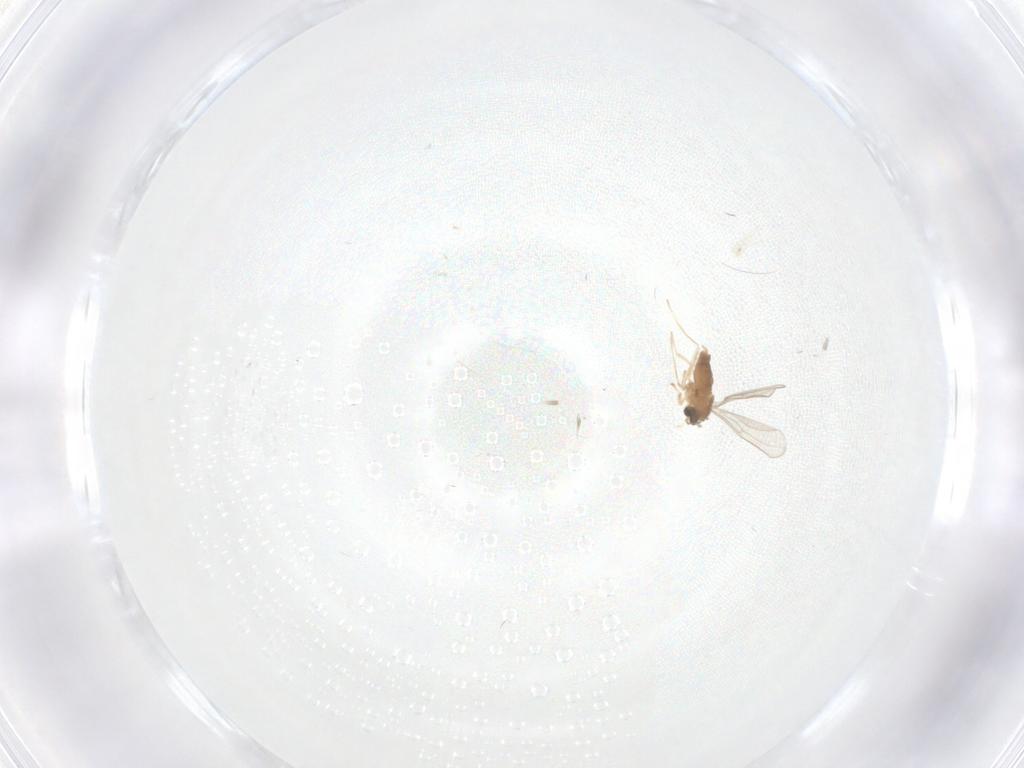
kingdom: Animalia
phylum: Arthropoda
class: Insecta
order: Diptera
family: Cecidomyiidae
